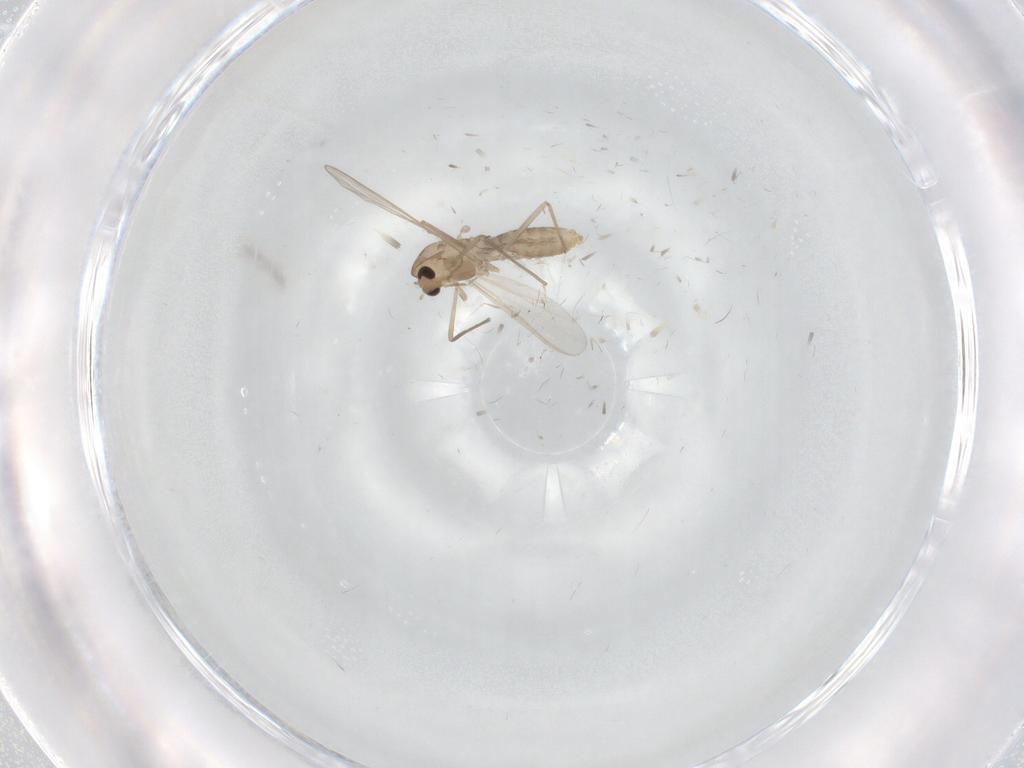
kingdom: Animalia
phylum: Arthropoda
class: Insecta
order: Diptera
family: Chironomidae
